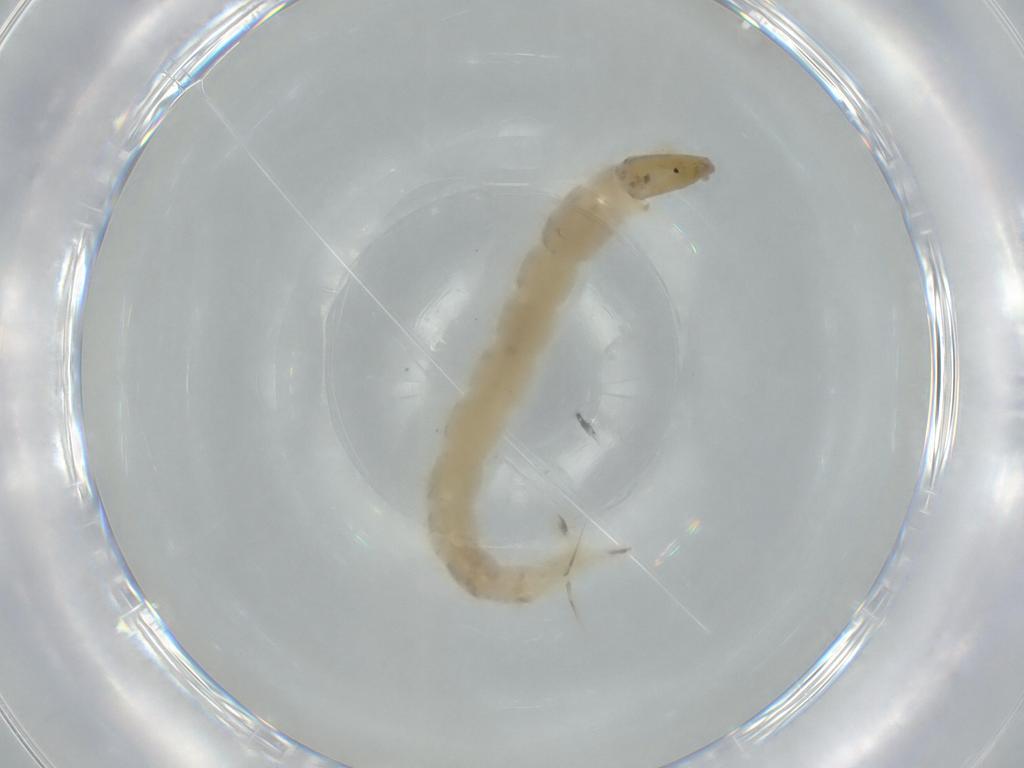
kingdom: Animalia
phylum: Arthropoda
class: Insecta
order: Diptera
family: Chironomidae
